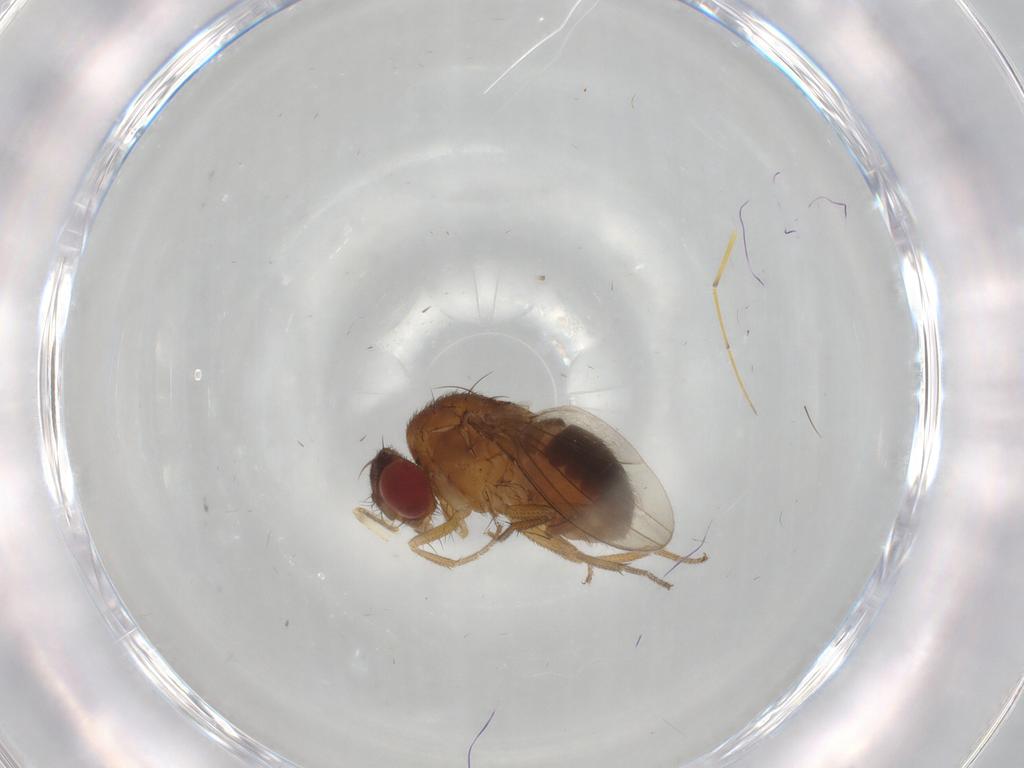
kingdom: Animalia
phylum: Arthropoda
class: Insecta
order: Diptera
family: Drosophilidae
